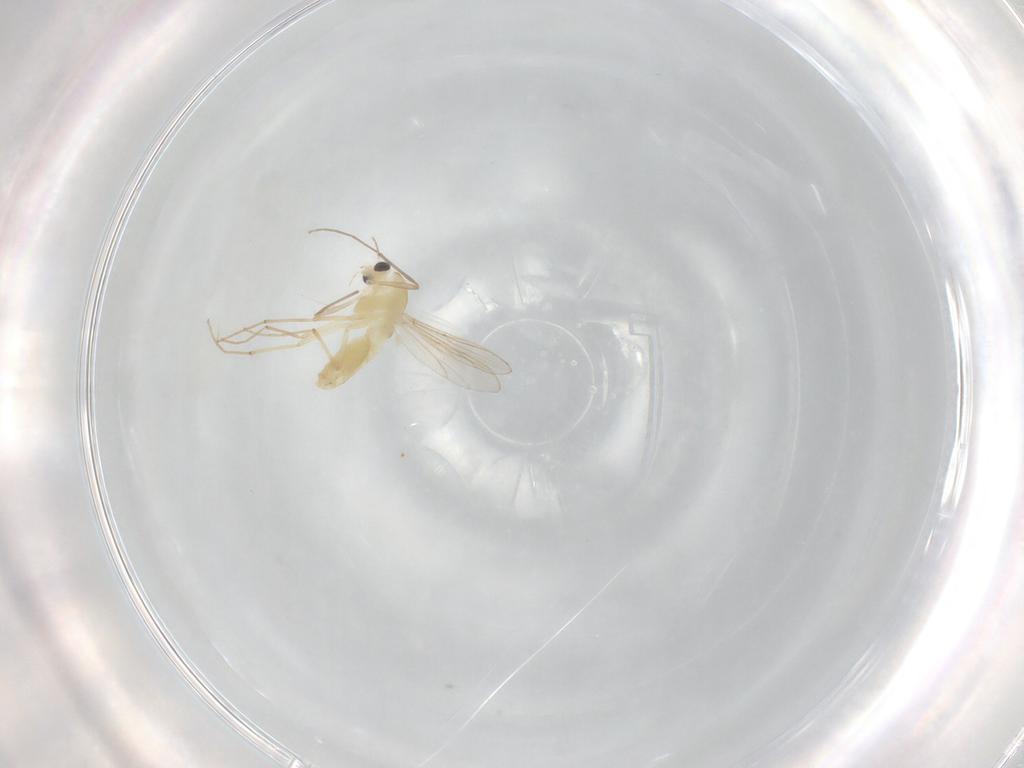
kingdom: Animalia
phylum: Arthropoda
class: Insecta
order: Diptera
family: Chironomidae
